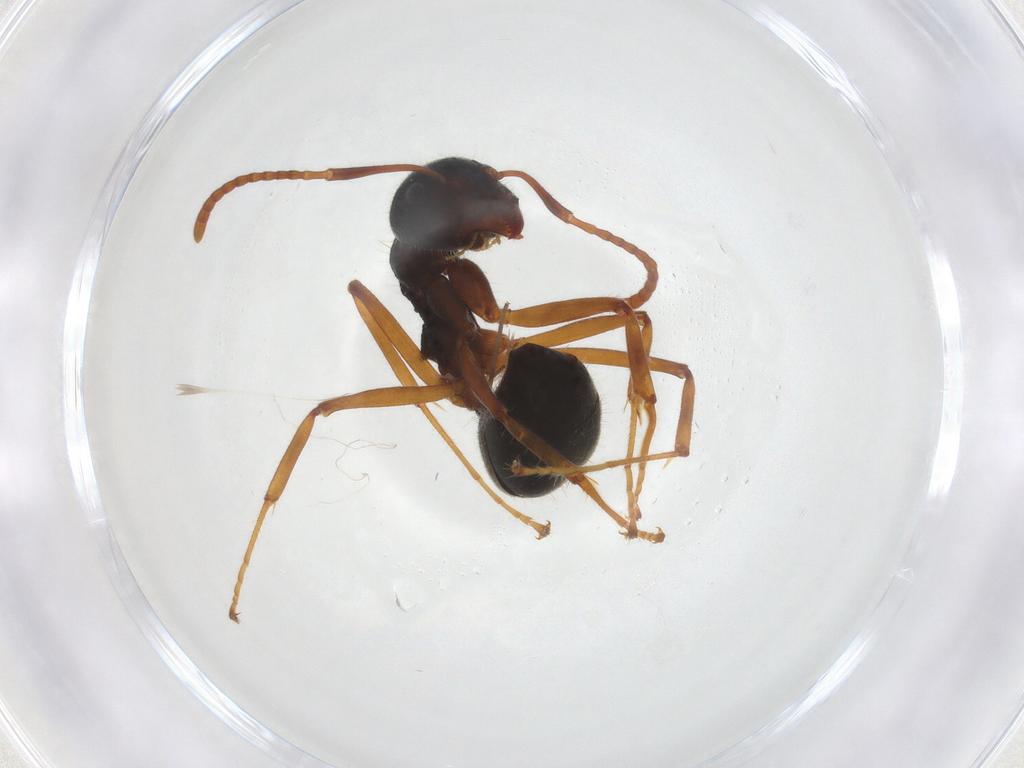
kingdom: Animalia
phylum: Arthropoda
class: Insecta
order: Hymenoptera
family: Formicidae
